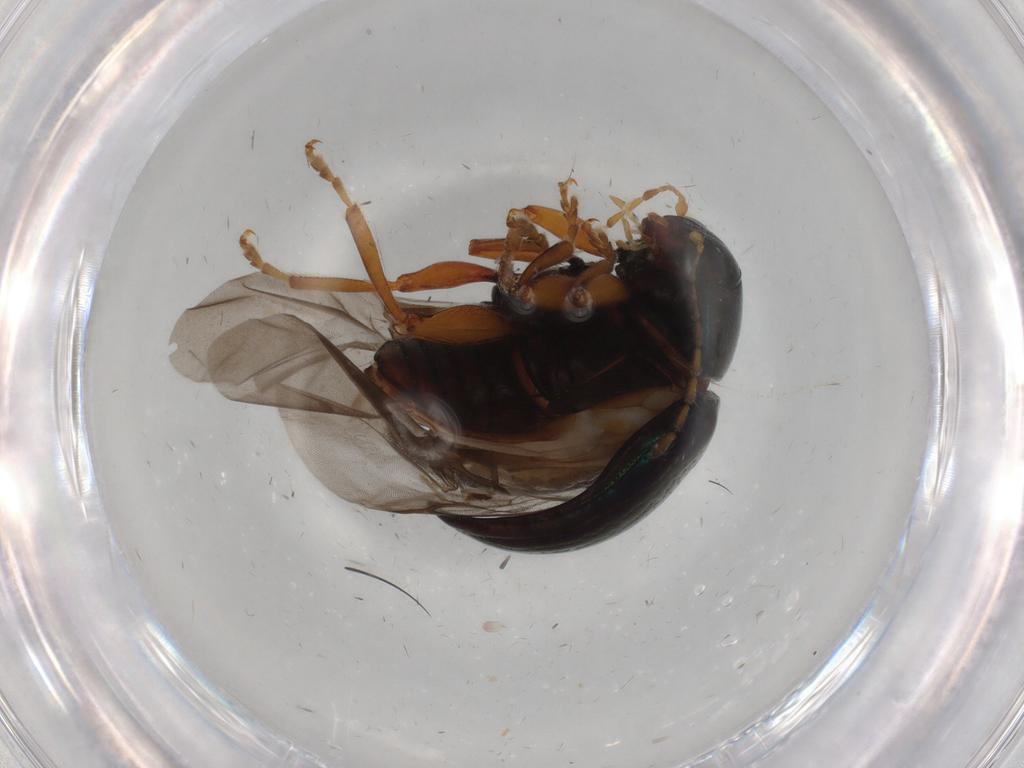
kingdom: Animalia
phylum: Arthropoda
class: Insecta
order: Coleoptera
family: Chrysomelidae
